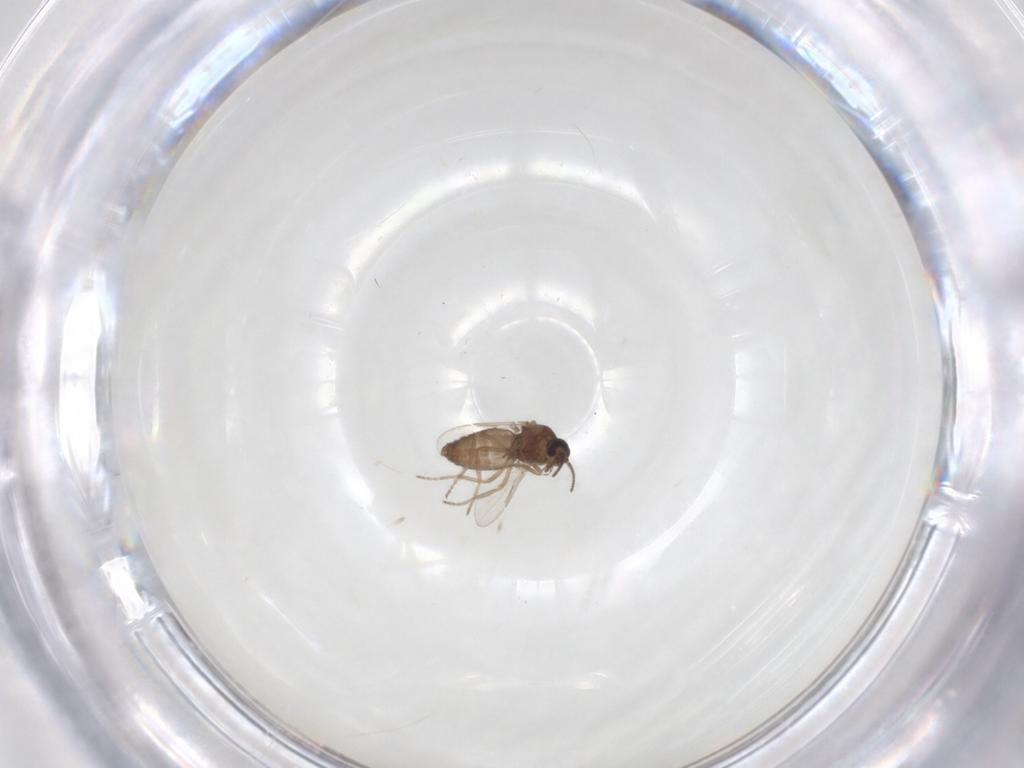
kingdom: Animalia
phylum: Arthropoda
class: Insecta
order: Diptera
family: Ceratopogonidae
